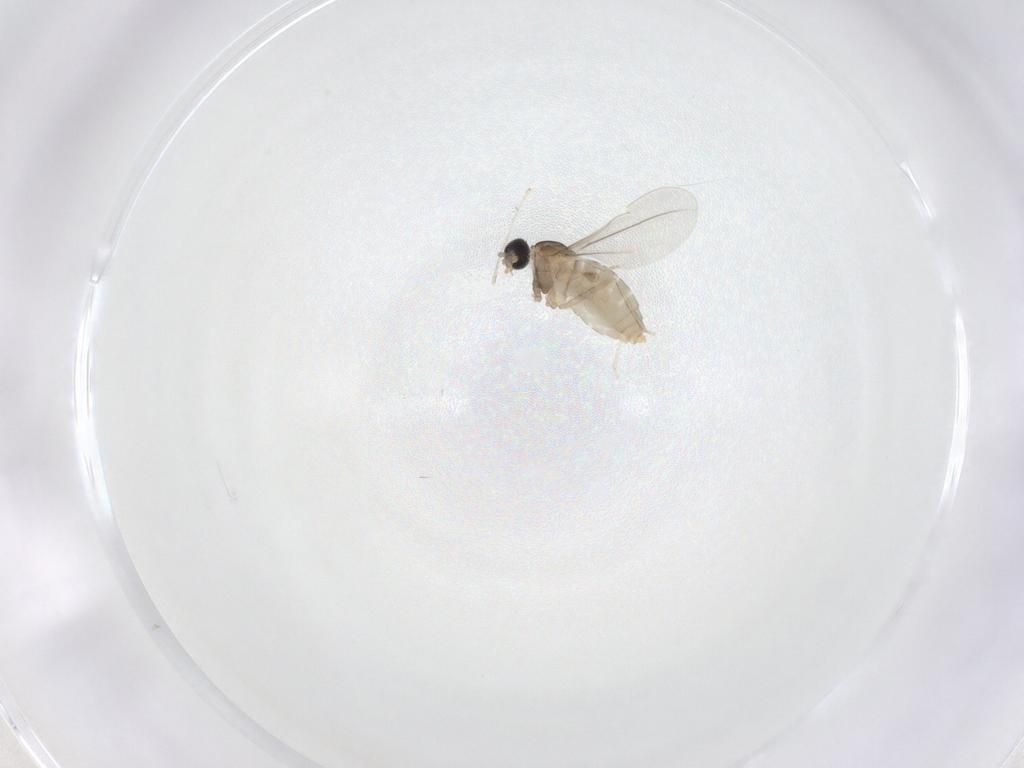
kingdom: Animalia
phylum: Arthropoda
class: Insecta
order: Diptera
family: Cecidomyiidae
